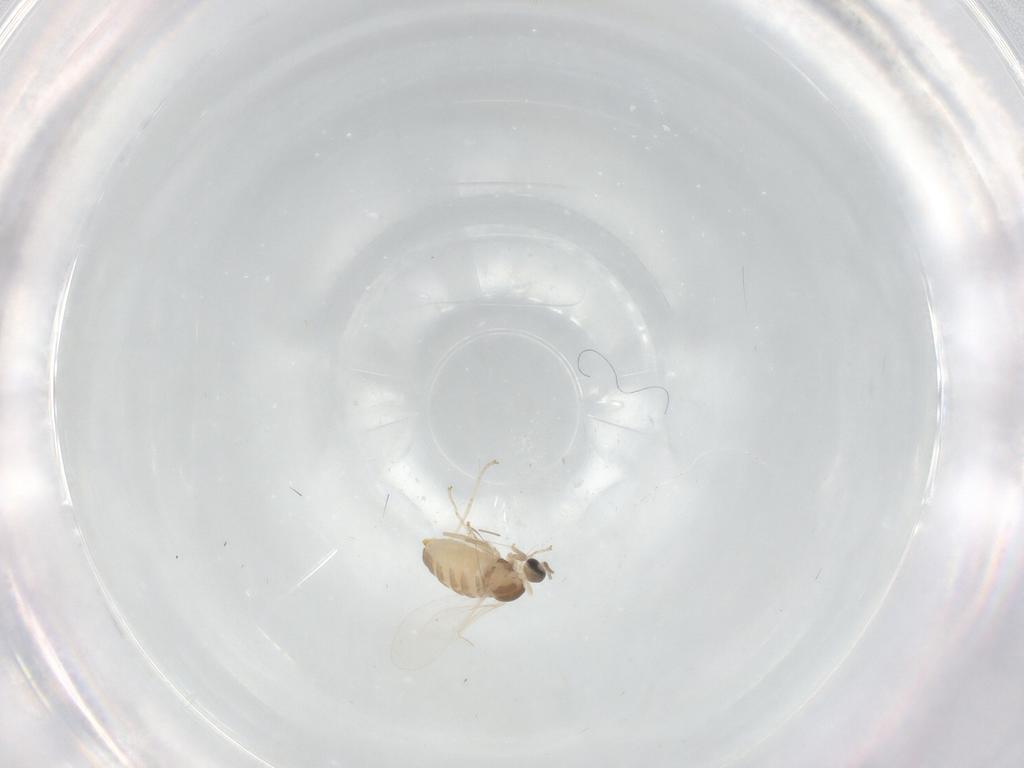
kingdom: Animalia
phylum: Arthropoda
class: Insecta
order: Diptera
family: Cecidomyiidae
